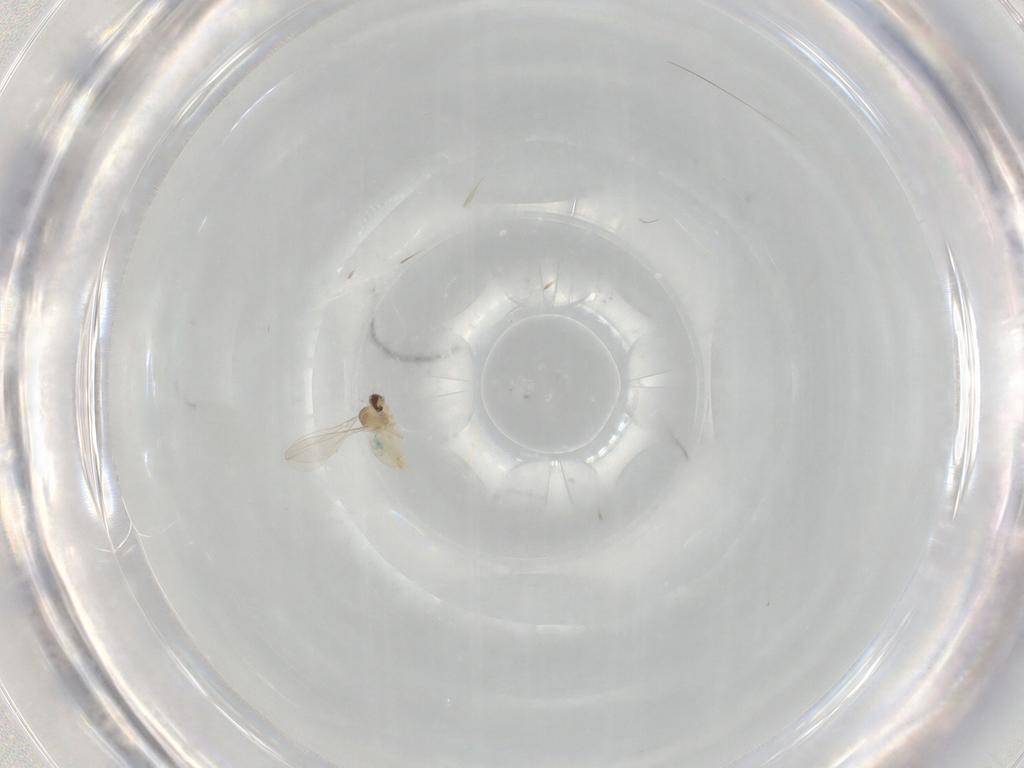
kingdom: Animalia
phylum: Arthropoda
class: Insecta
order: Diptera
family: Cecidomyiidae
